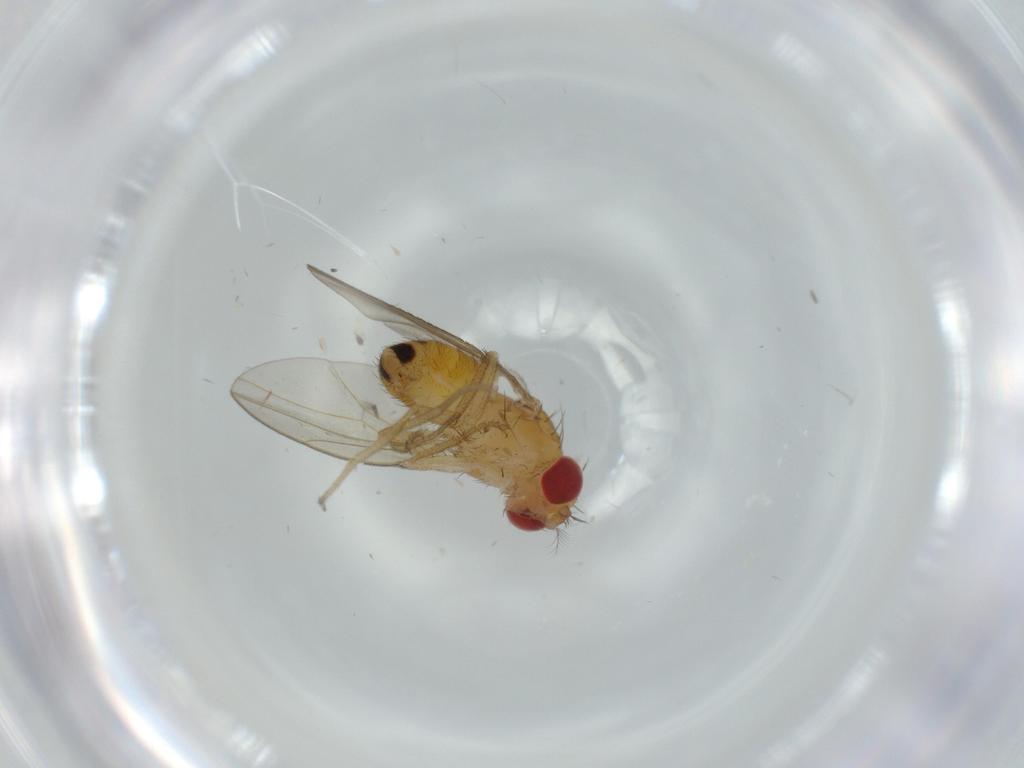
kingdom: Animalia
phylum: Arthropoda
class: Insecta
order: Diptera
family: Drosophilidae
